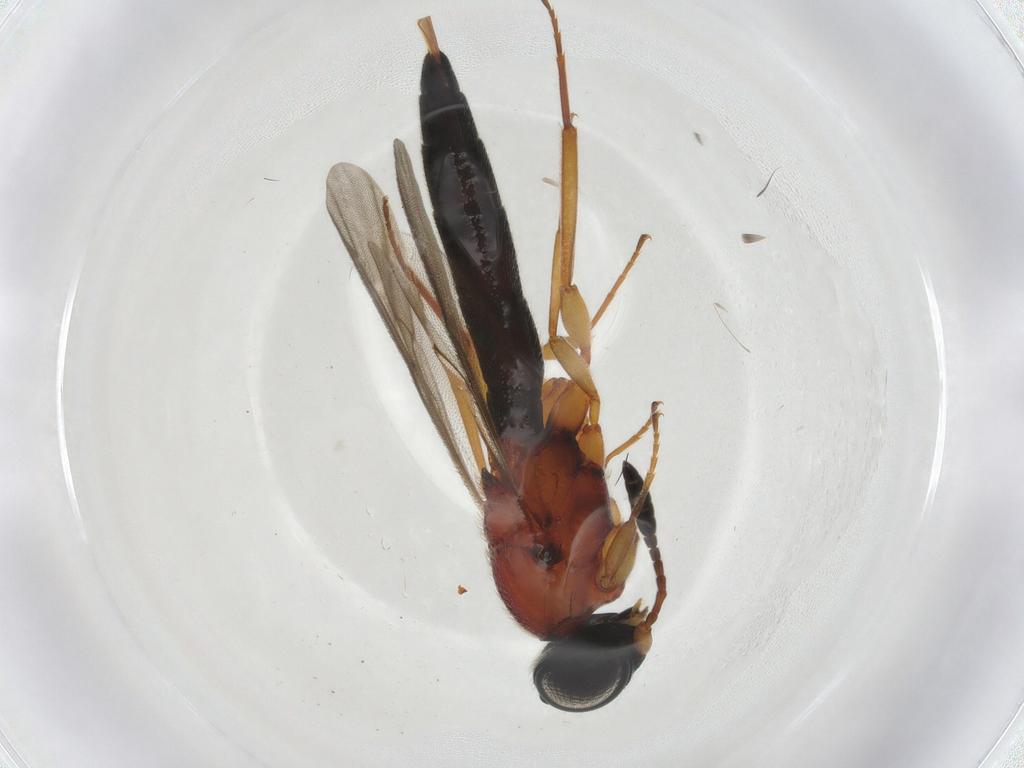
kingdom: Animalia
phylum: Arthropoda
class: Insecta
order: Hymenoptera
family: Scelionidae
